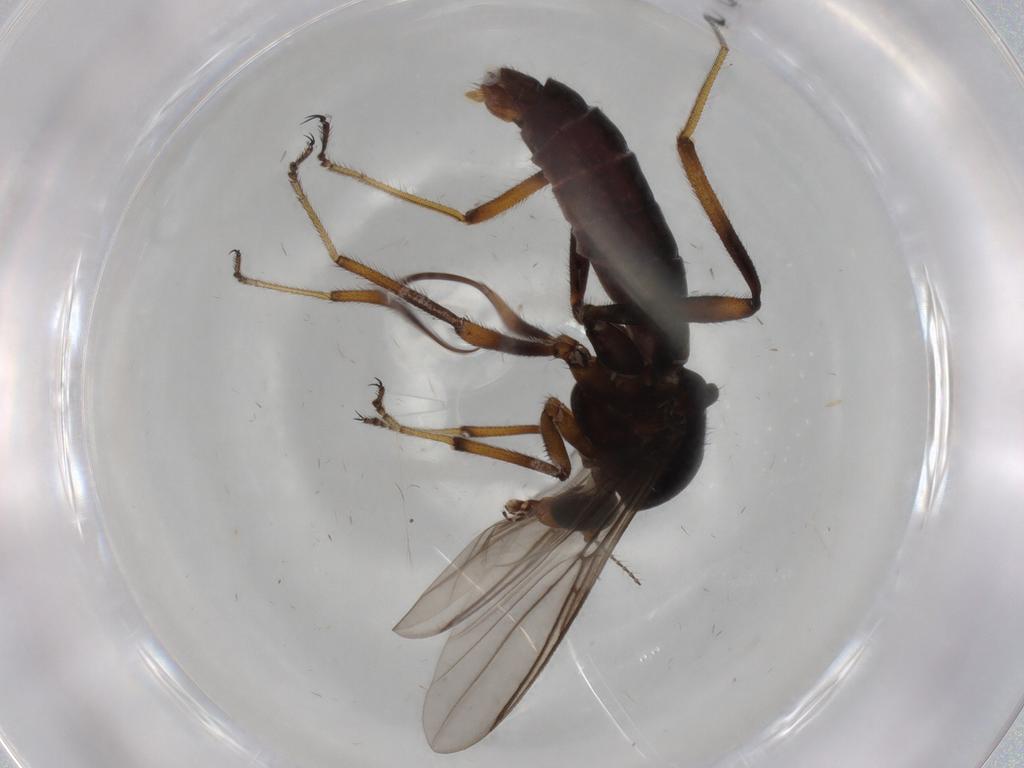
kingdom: Animalia
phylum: Arthropoda
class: Insecta
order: Diptera
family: Ceratopogonidae
